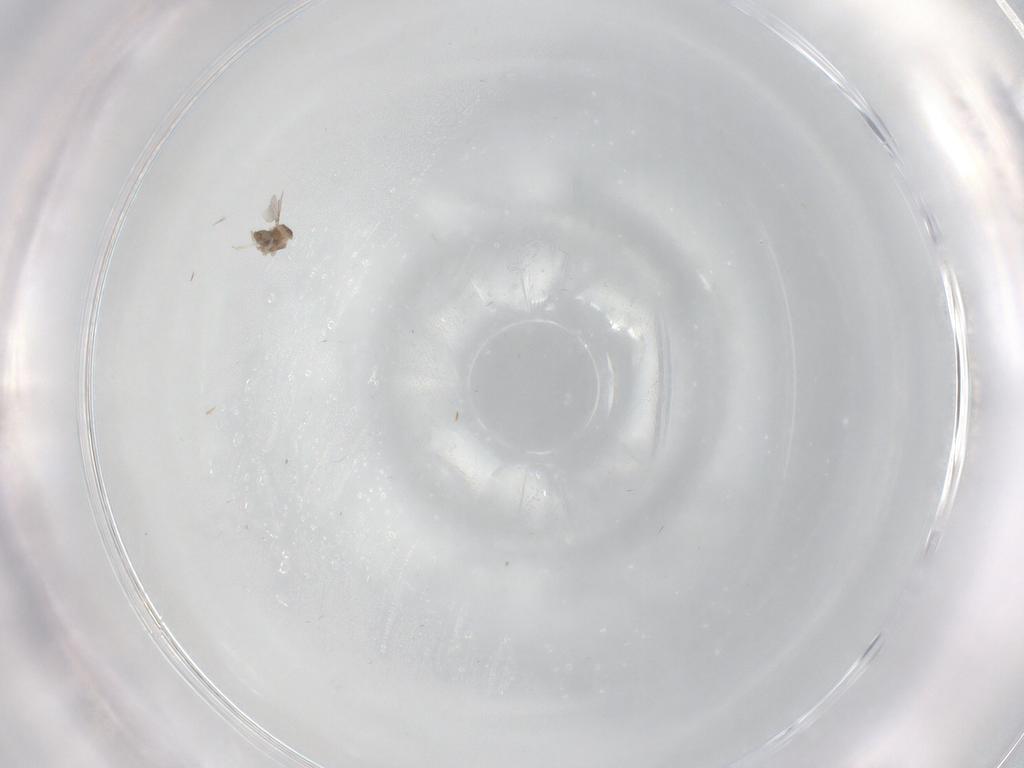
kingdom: Animalia
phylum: Arthropoda
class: Insecta
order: Diptera
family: Cecidomyiidae
